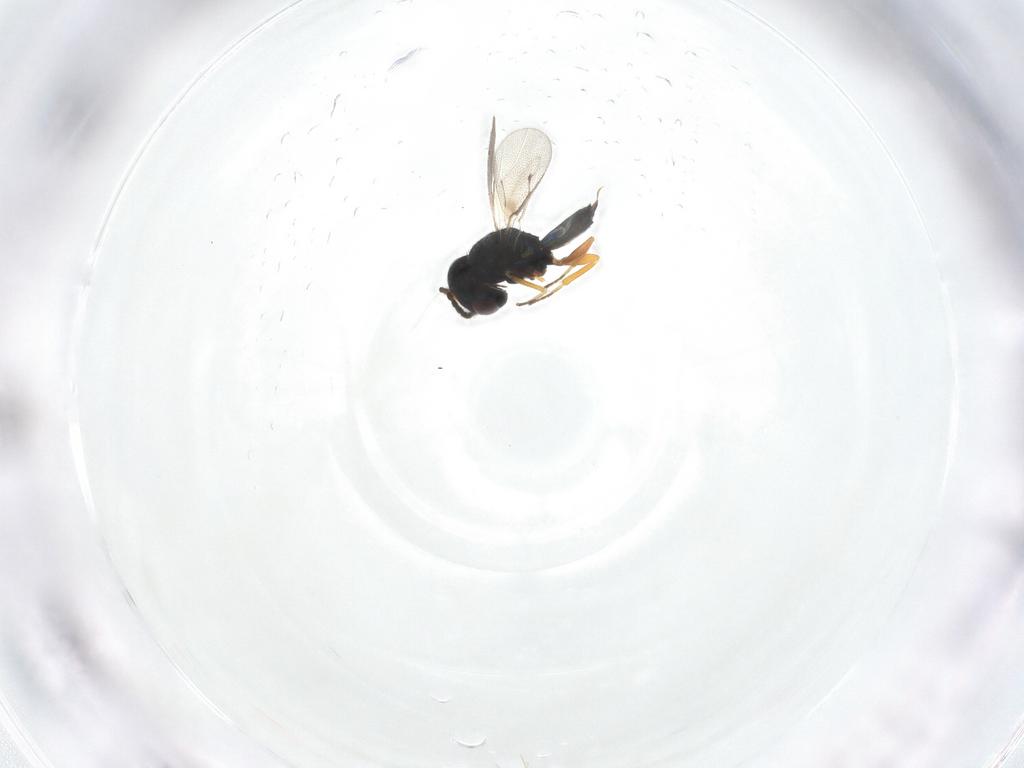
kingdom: Animalia
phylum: Arthropoda
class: Insecta
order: Hymenoptera
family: Pteromalidae
